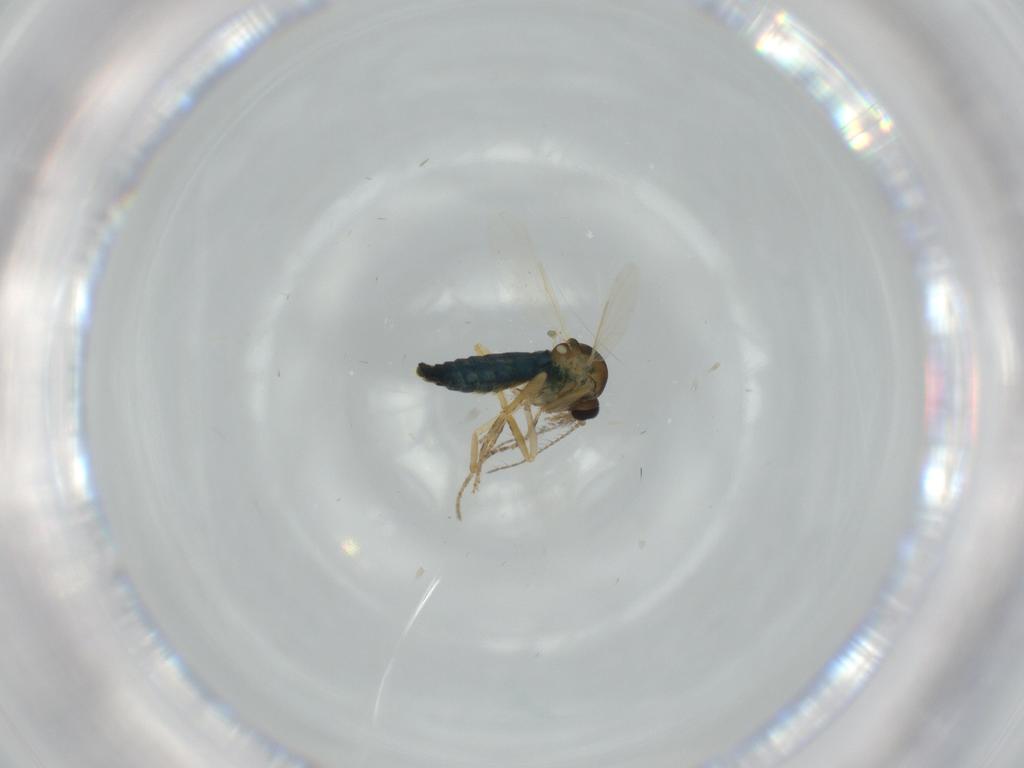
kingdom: Animalia
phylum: Arthropoda
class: Insecta
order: Diptera
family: Ceratopogonidae
